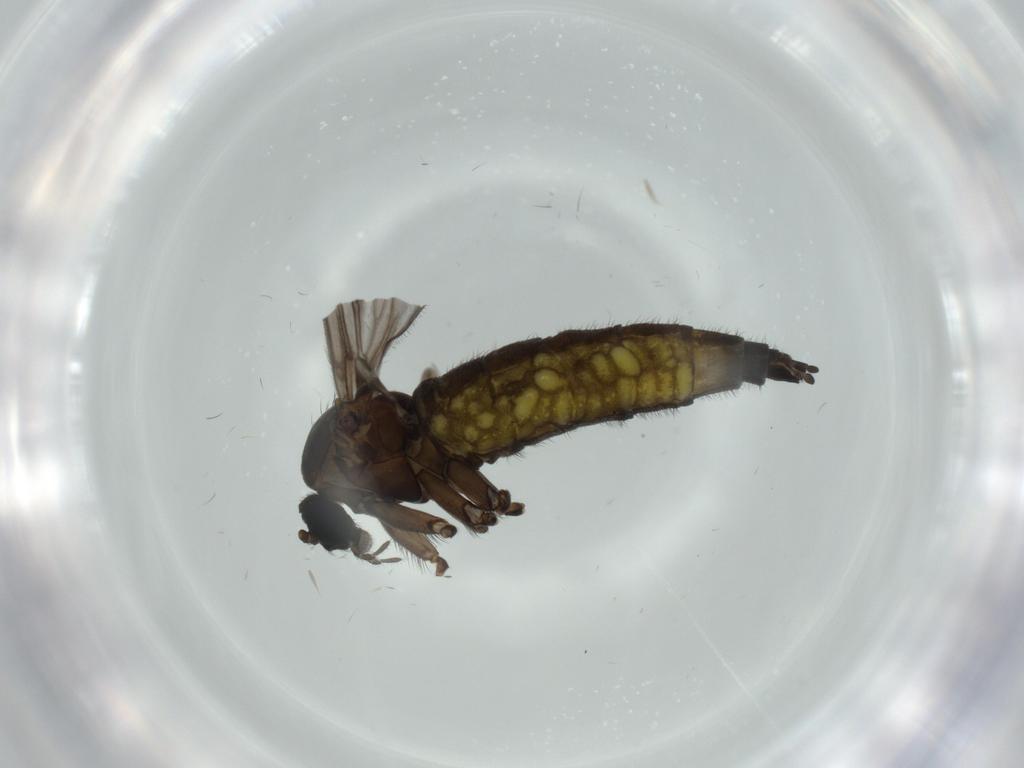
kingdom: Animalia
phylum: Arthropoda
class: Insecta
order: Diptera
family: Sciaridae
